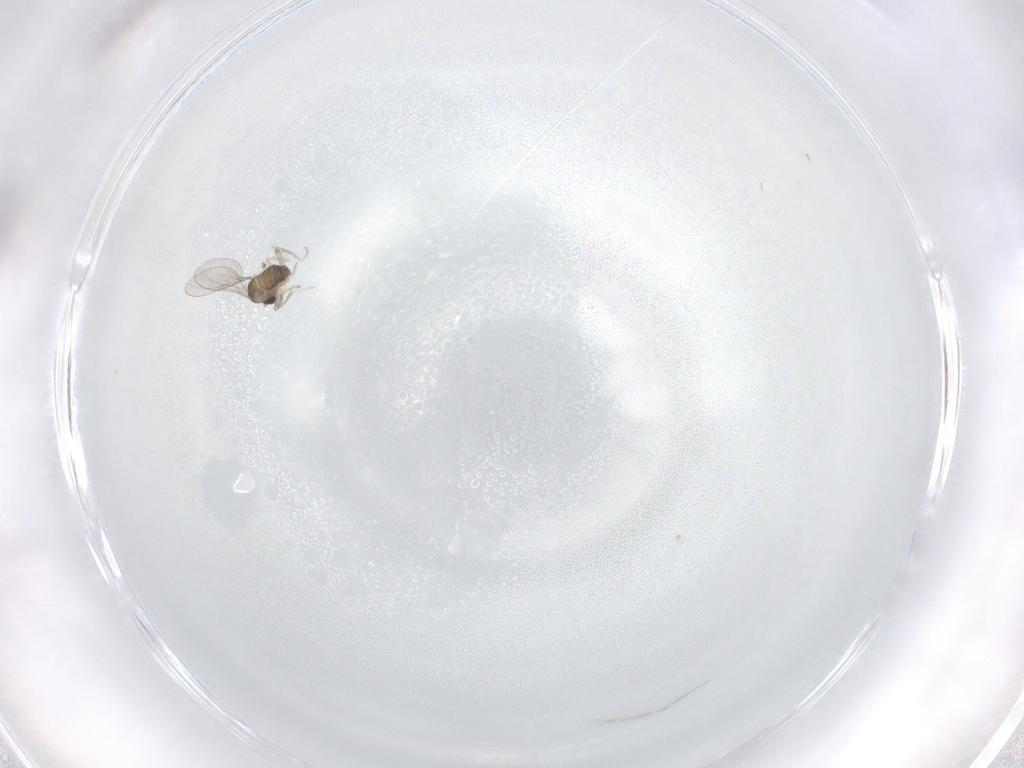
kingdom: Animalia
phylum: Arthropoda
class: Insecta
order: Diptera
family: Cecidomyiidae
